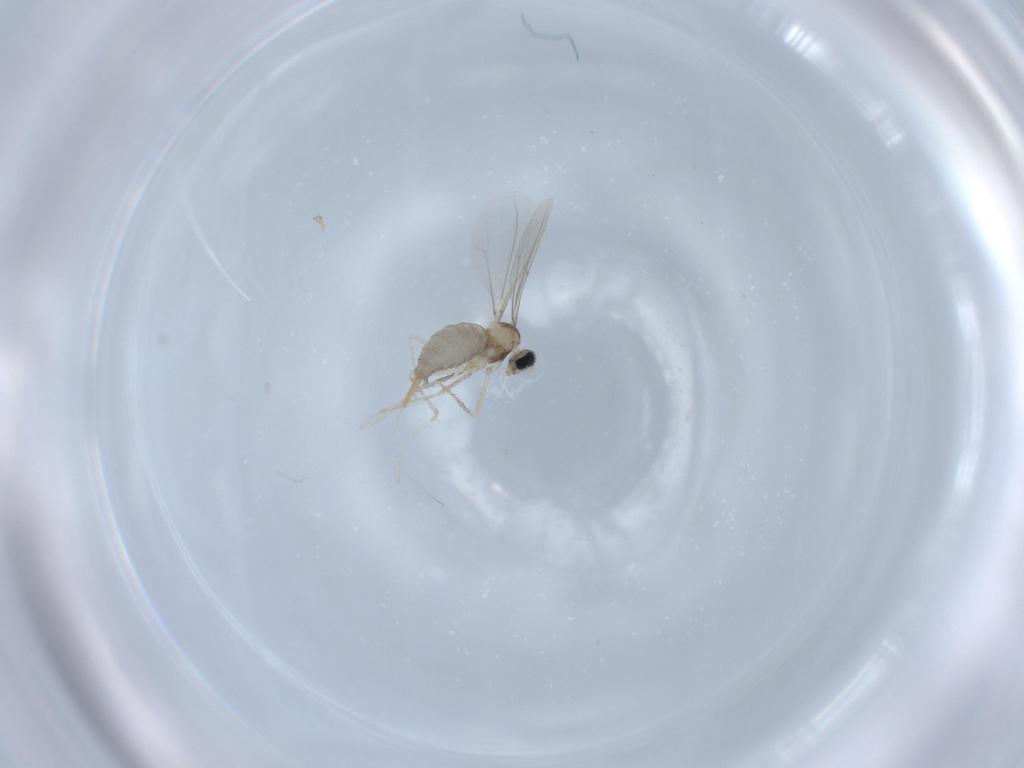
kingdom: Animalia
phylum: Arthropoda
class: Insecta
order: Diptera
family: Cecidomyiidae
